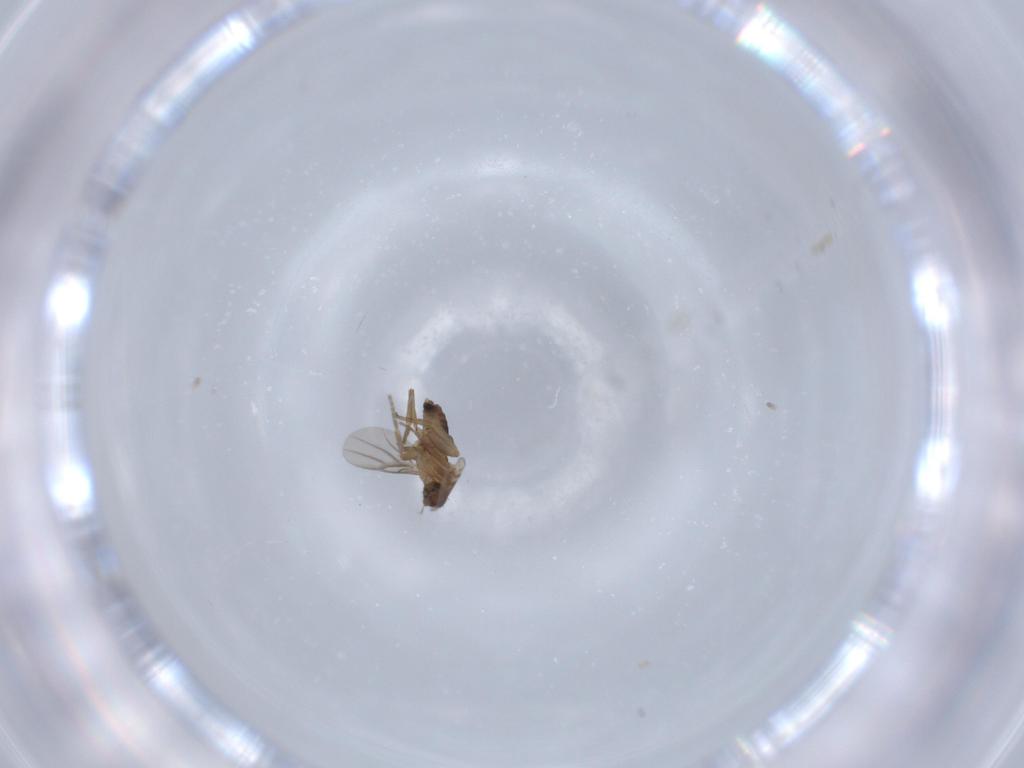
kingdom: Animalia
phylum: Arthropoda
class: Insecta
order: Diptera
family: Phoridae
